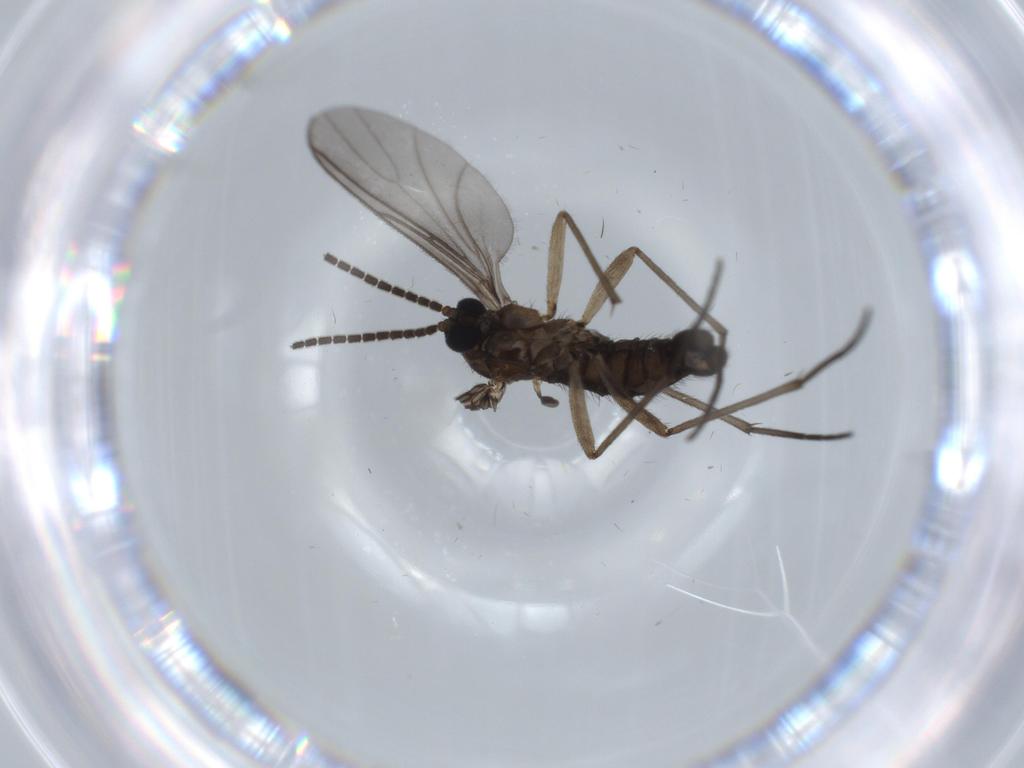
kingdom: Animalia
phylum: Arthropoda
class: Insecta
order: Diptera
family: Sciaridae
